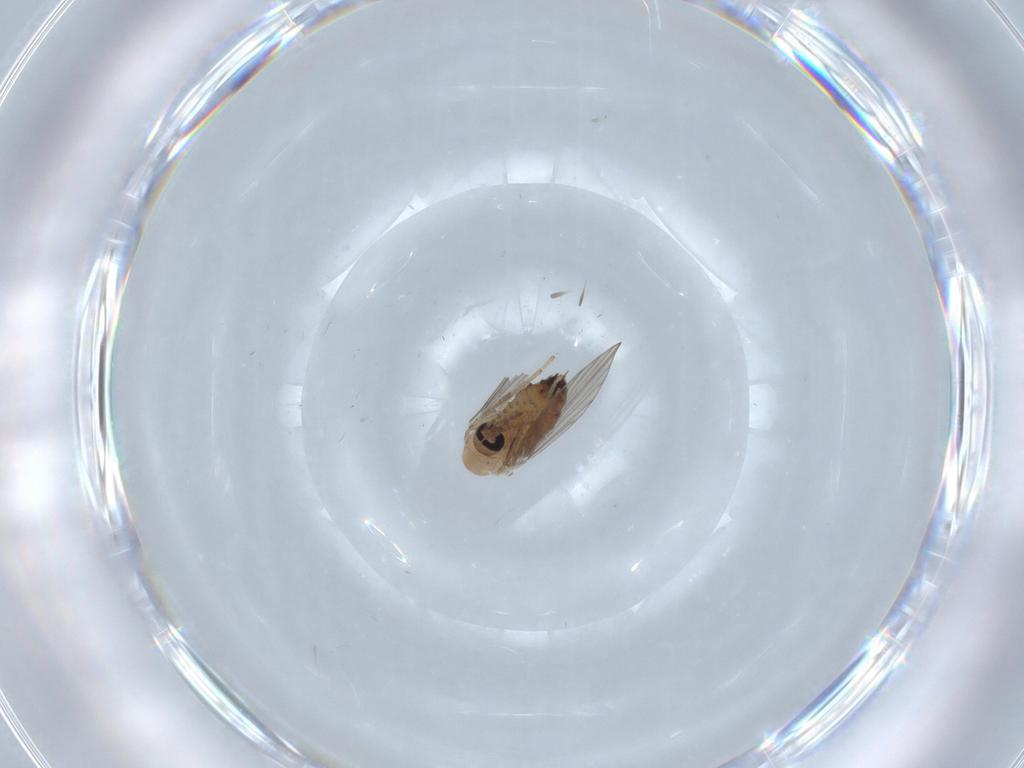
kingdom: Animalia
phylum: Arthropoda
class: Insecta
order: Diptera
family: Psychodidae
